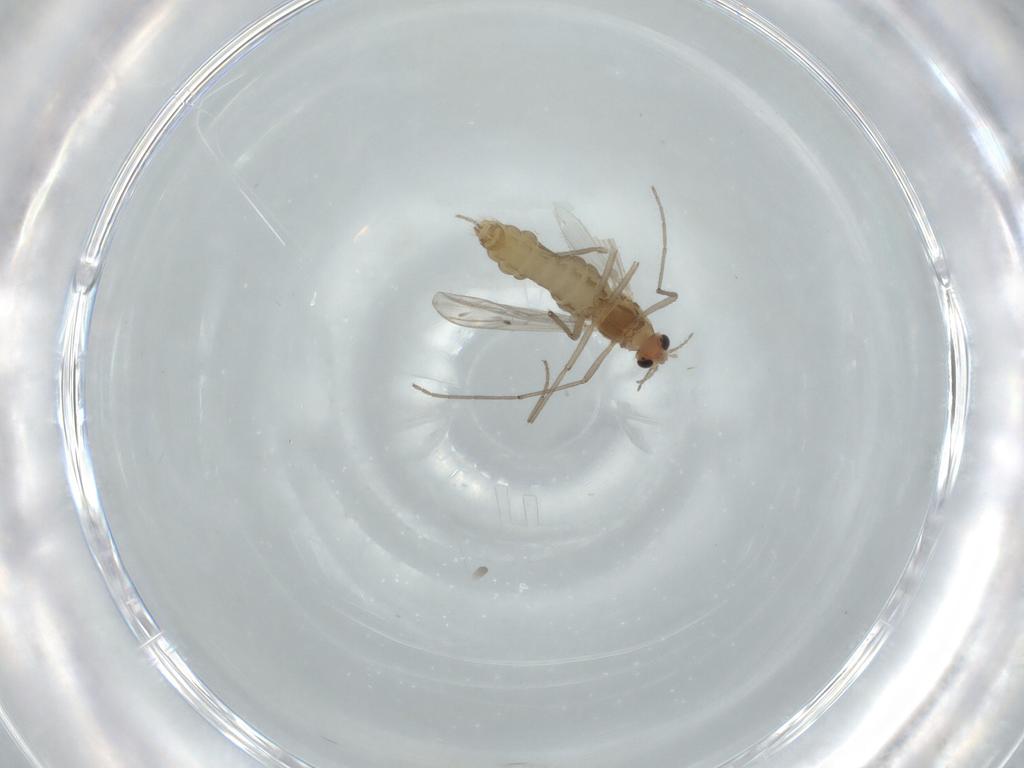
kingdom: Animalia
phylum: Arthropoda
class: Insecta
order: Diptera
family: Chironomidae
